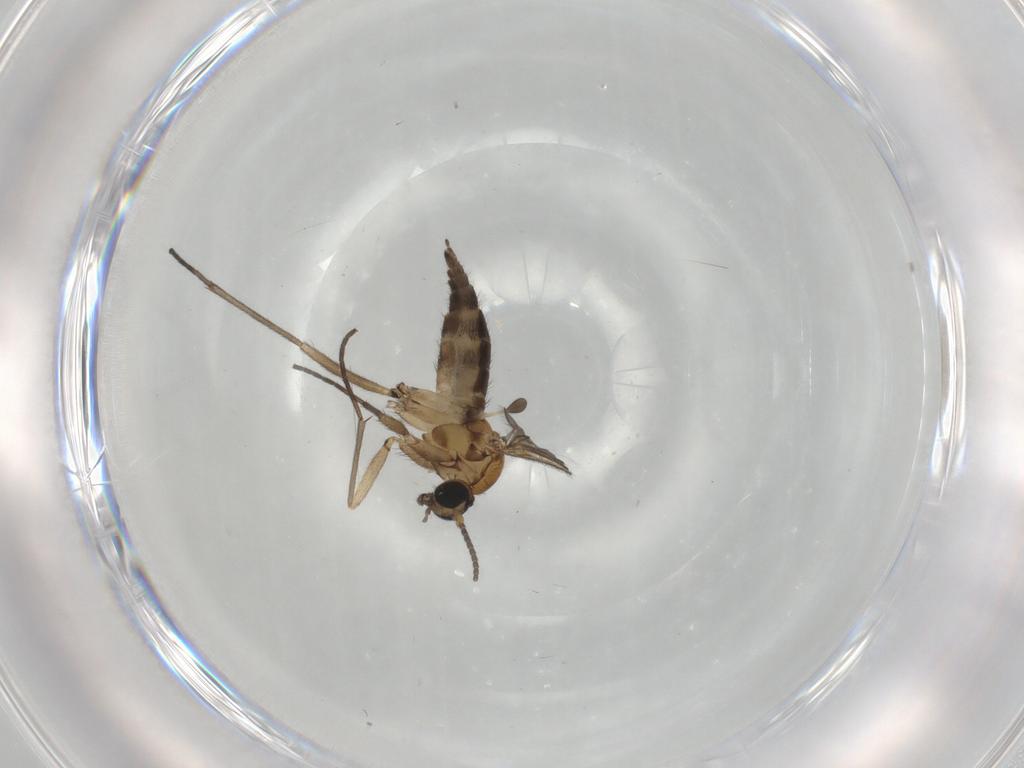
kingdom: Animalia
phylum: Arthropoda
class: Insecta
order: Diptera
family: Sciaridae
